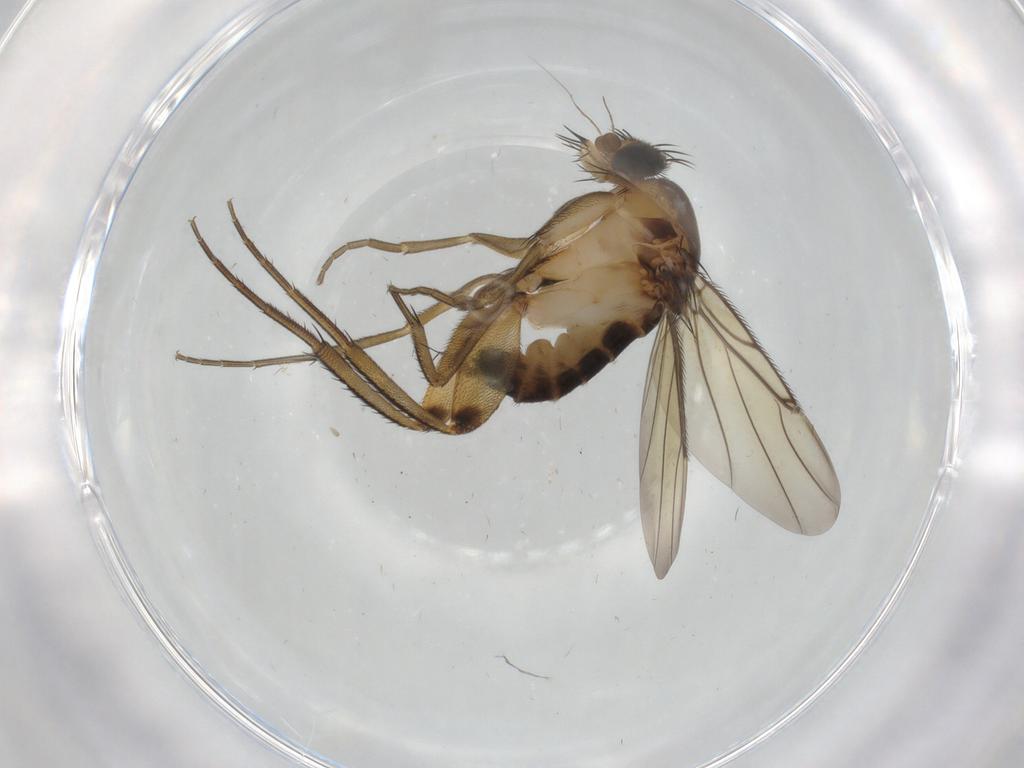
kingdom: Animalia
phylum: Arthropoda
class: Insecta
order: Diptera
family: Phoridae
